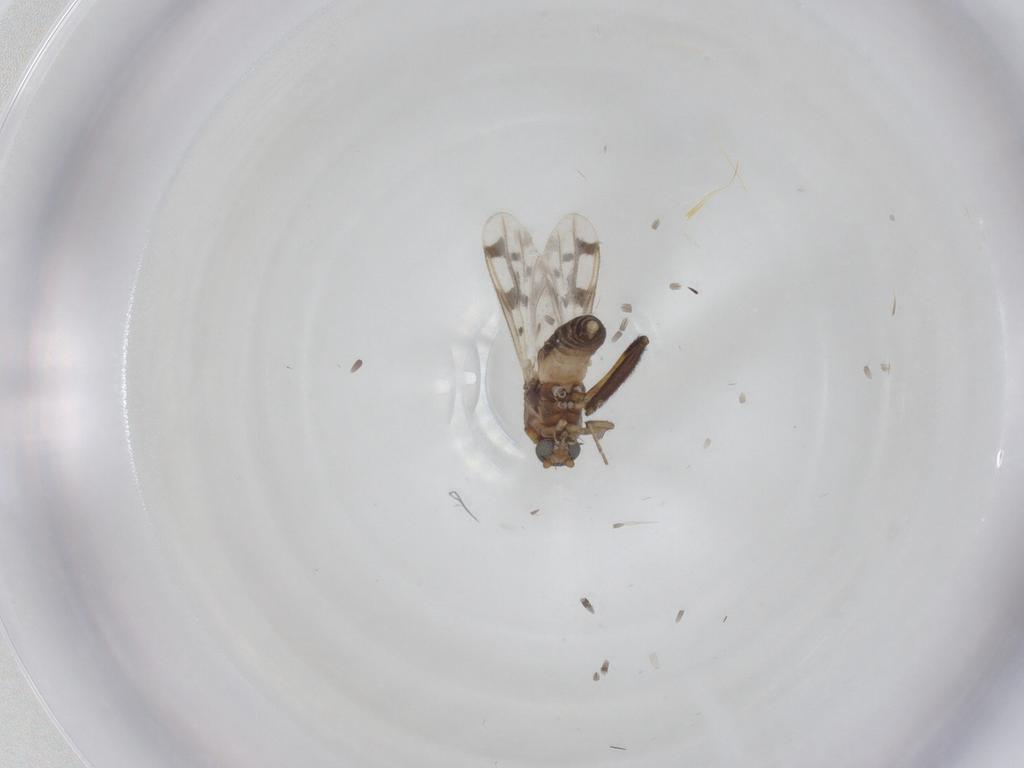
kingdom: Animalia
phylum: Arthropoda
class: Insecta
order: Diptera
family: Ceratopogonidae
